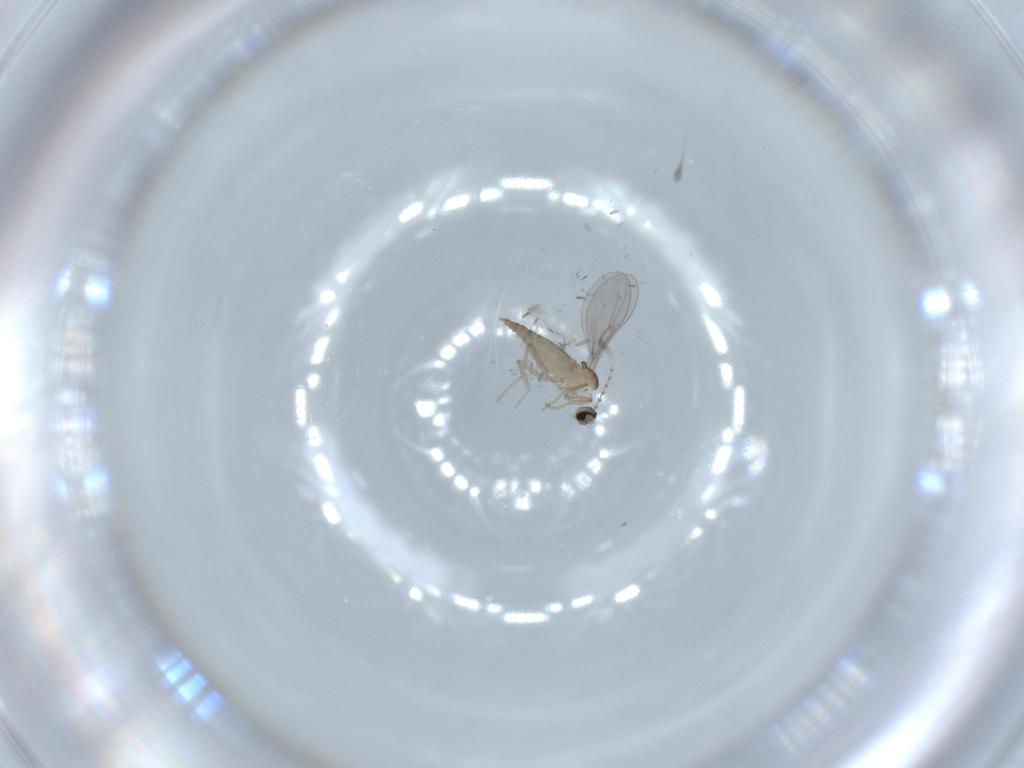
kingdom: Animalia
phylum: Arthropoda
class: Insecta
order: Diptera
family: Cecidomyiidae
